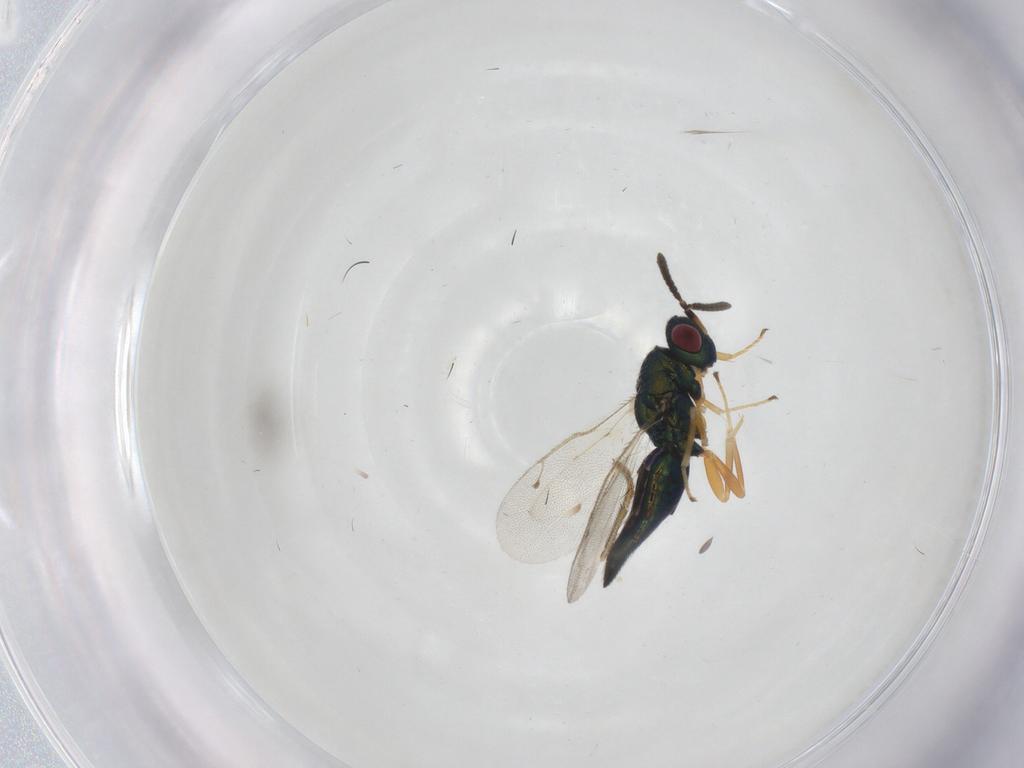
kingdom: Animalia
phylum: Arthropoda
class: Insecta
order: Hymenoptera
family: Pteromalidae
